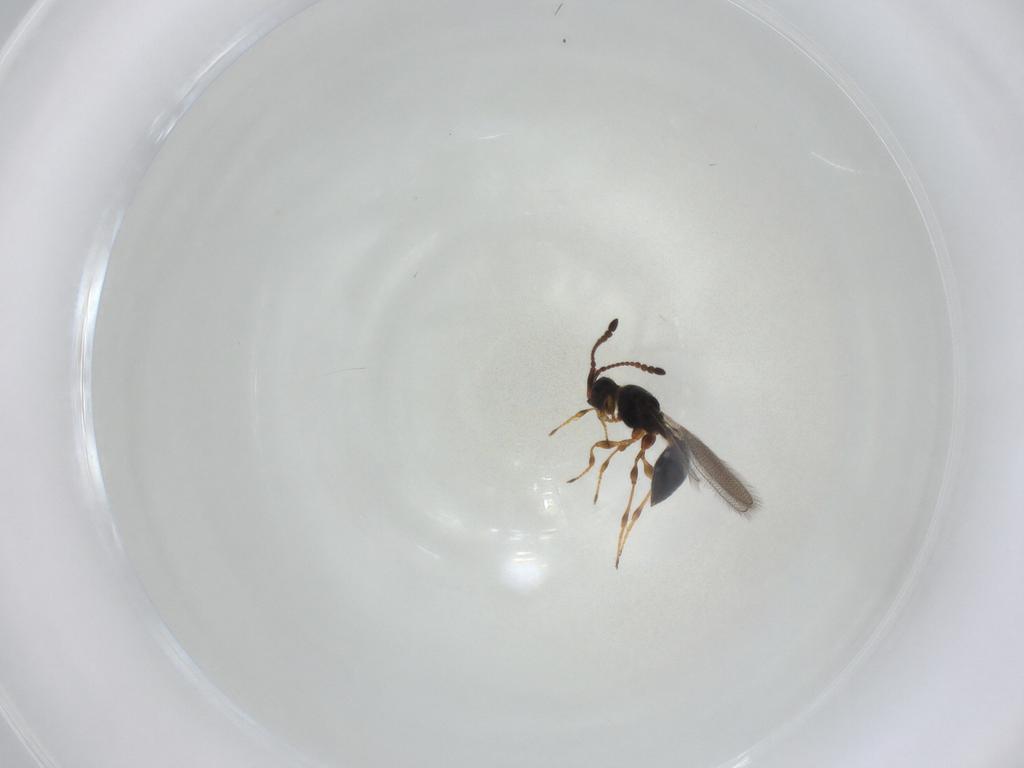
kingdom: Animalia
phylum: Arthropoda
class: Insecta
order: Hymenoptera
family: Diapriidae
